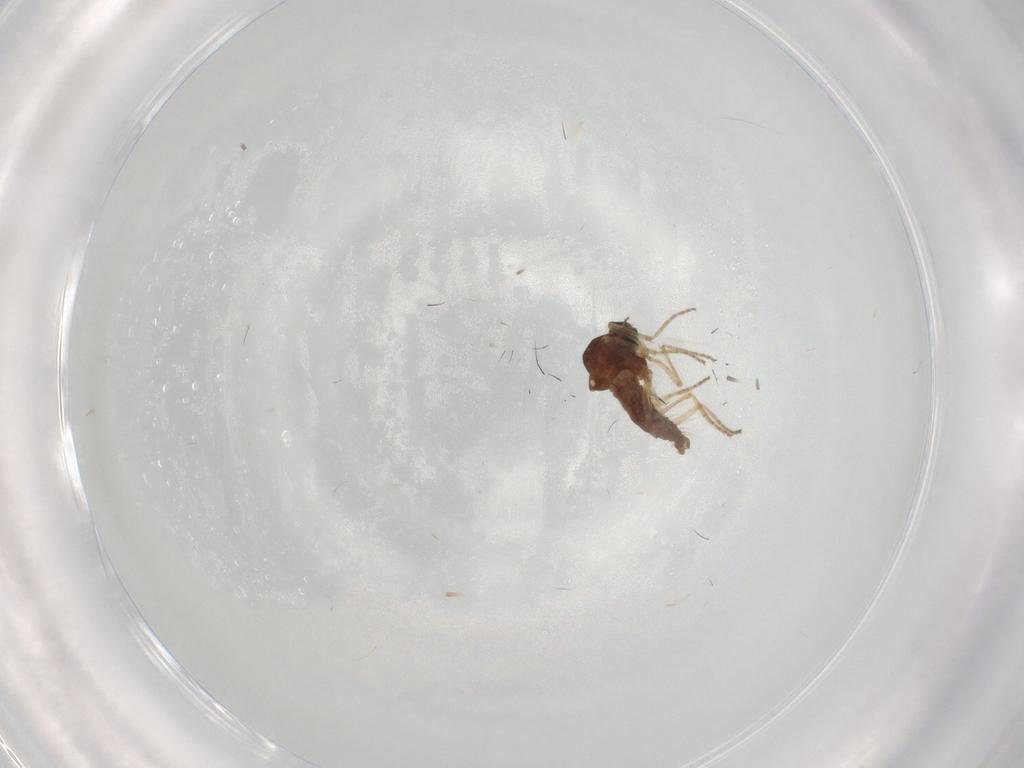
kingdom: Animalia
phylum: Arthropoda
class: Insecta
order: Diptera
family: Ceratopogonidae
